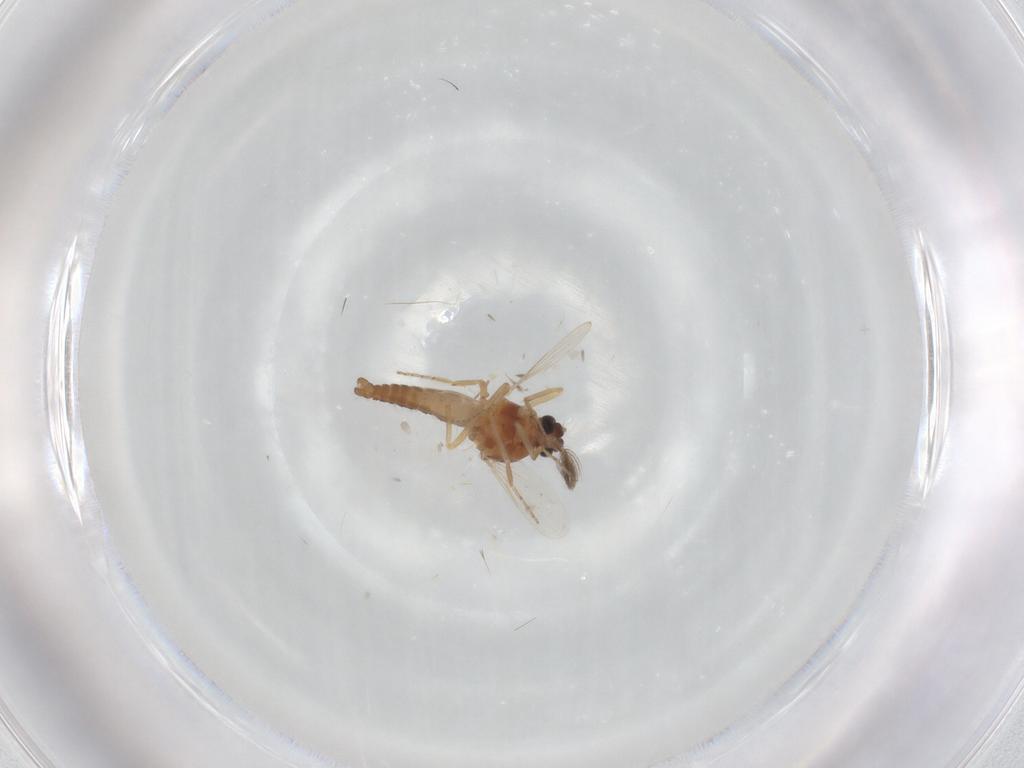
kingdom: Animalia
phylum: Arthropoda
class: Insecta
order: Diptera
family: Ceratopogonidae
